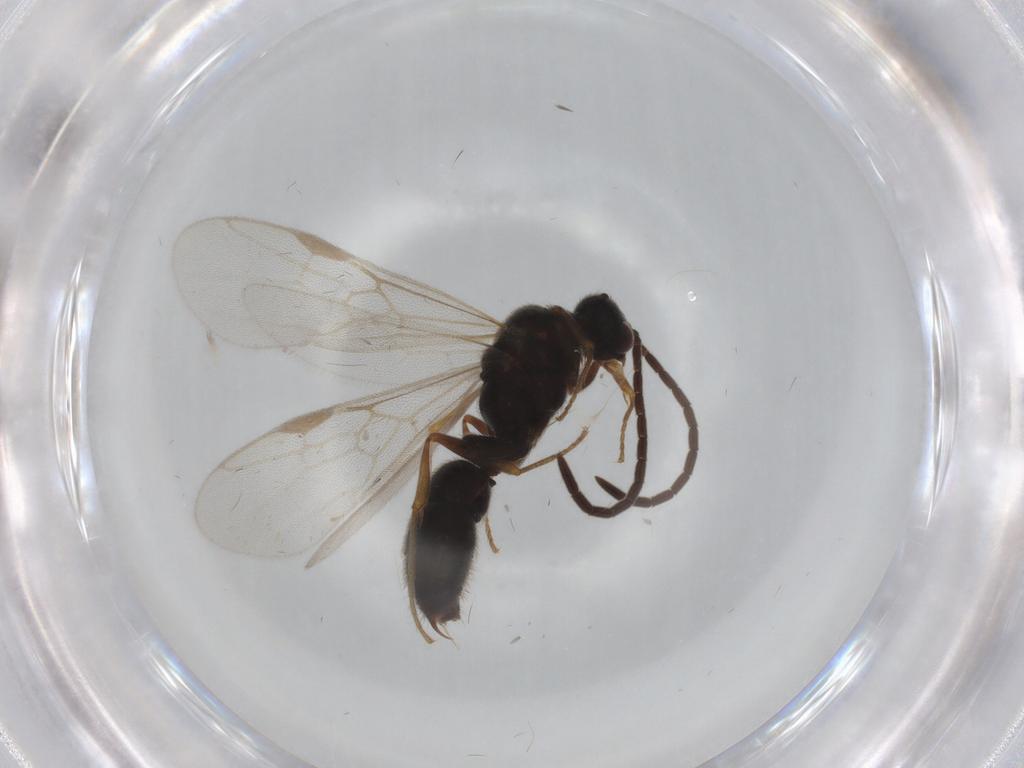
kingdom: Animalia
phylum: Arthropoda
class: Insecta
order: Hymenoptera
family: Formicidae
